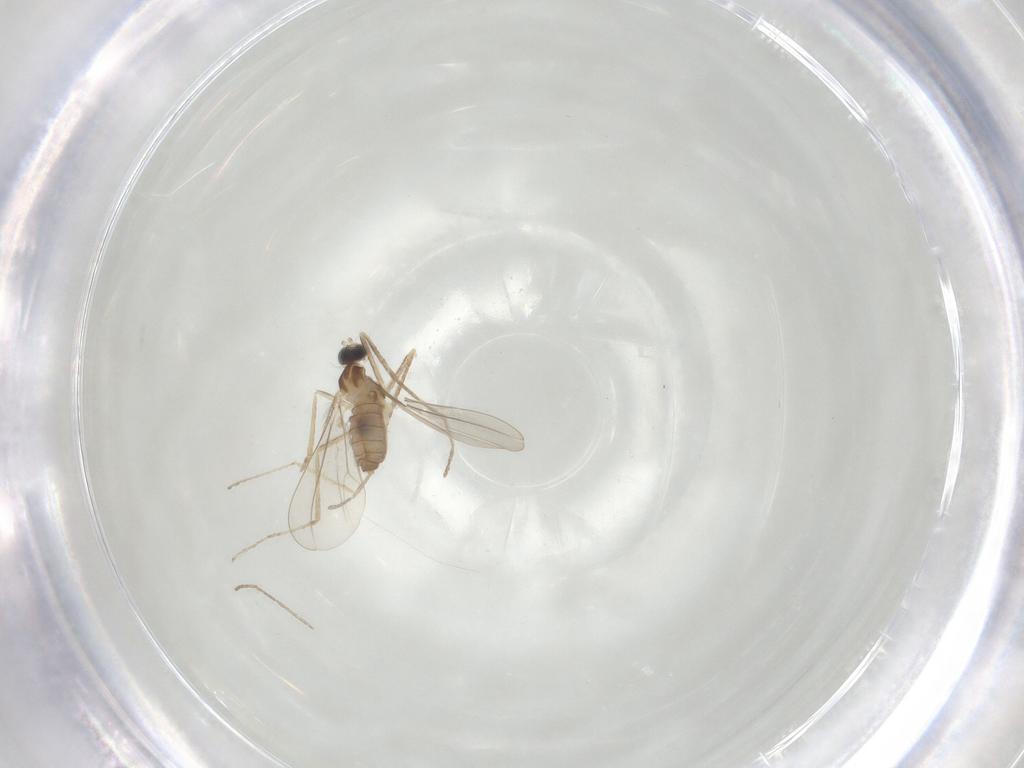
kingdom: Animalia
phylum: Arthropoda
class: Insecta
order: Diptera
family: Cecidomyiidae
